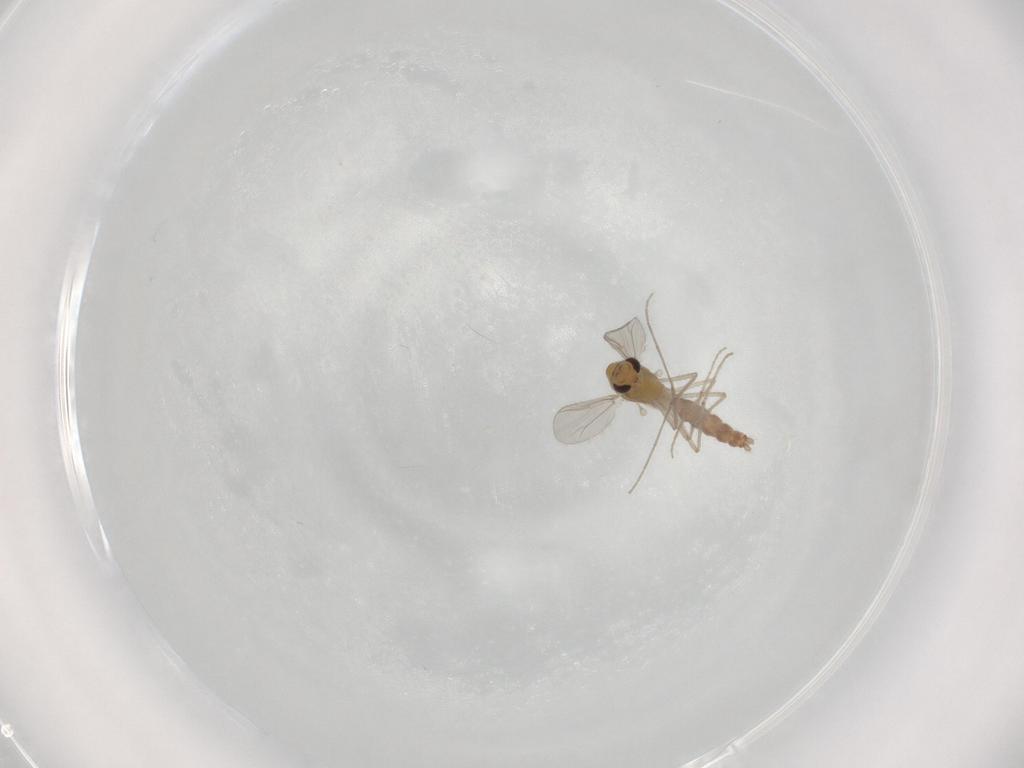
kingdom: Animalia
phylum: Arthropoda
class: Insecta
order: Diptera
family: Chironomidae
